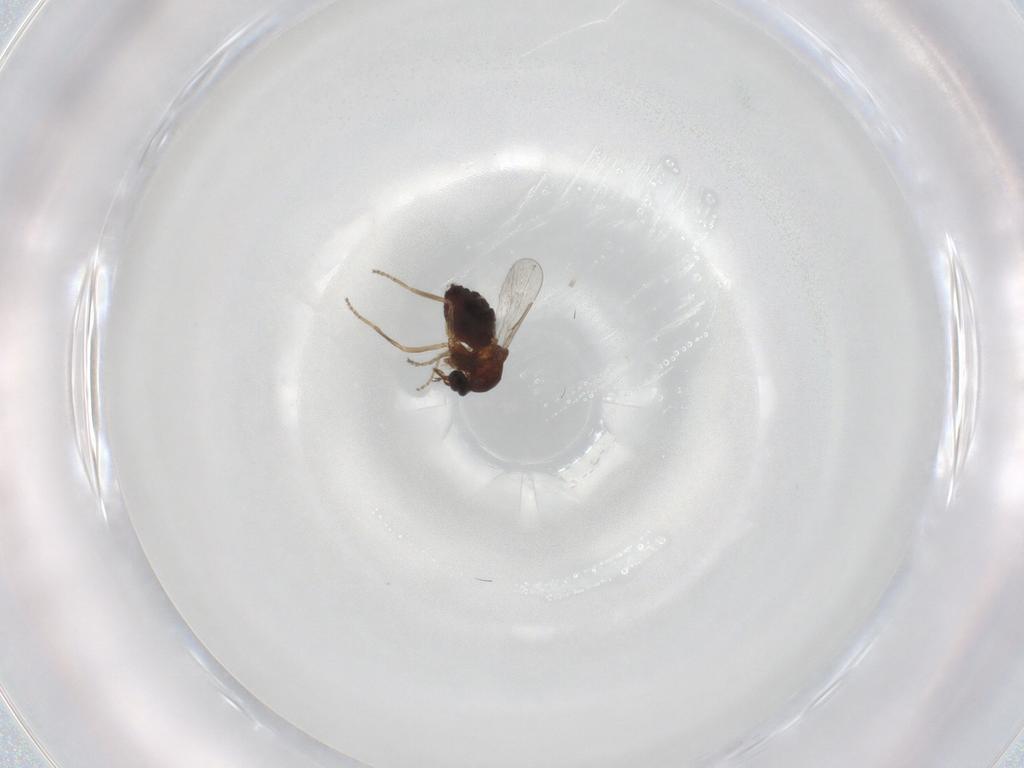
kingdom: Animalia
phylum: Arthropoda
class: Insecta
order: Diptera
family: Ceratopogonidae
